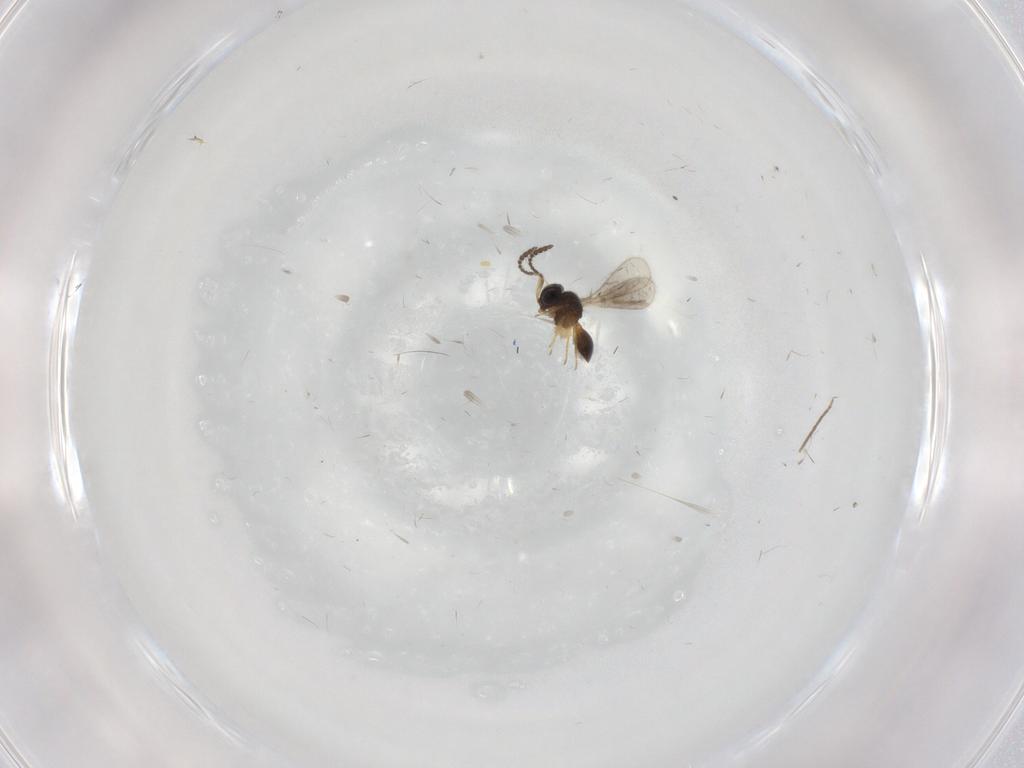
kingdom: Animalia
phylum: Arthropoda
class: Insecta
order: Hymenoptera
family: Scelionidae
